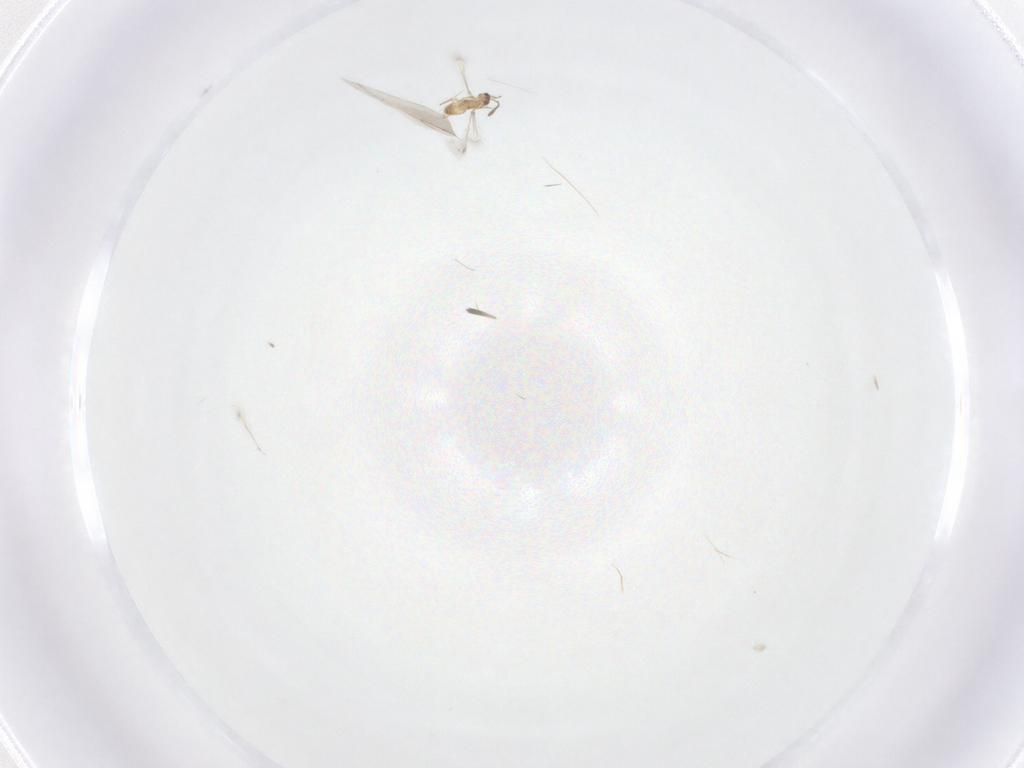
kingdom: Animalia
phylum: Arthropoda
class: Insecta
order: Hymenoptera
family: Mymaridae
